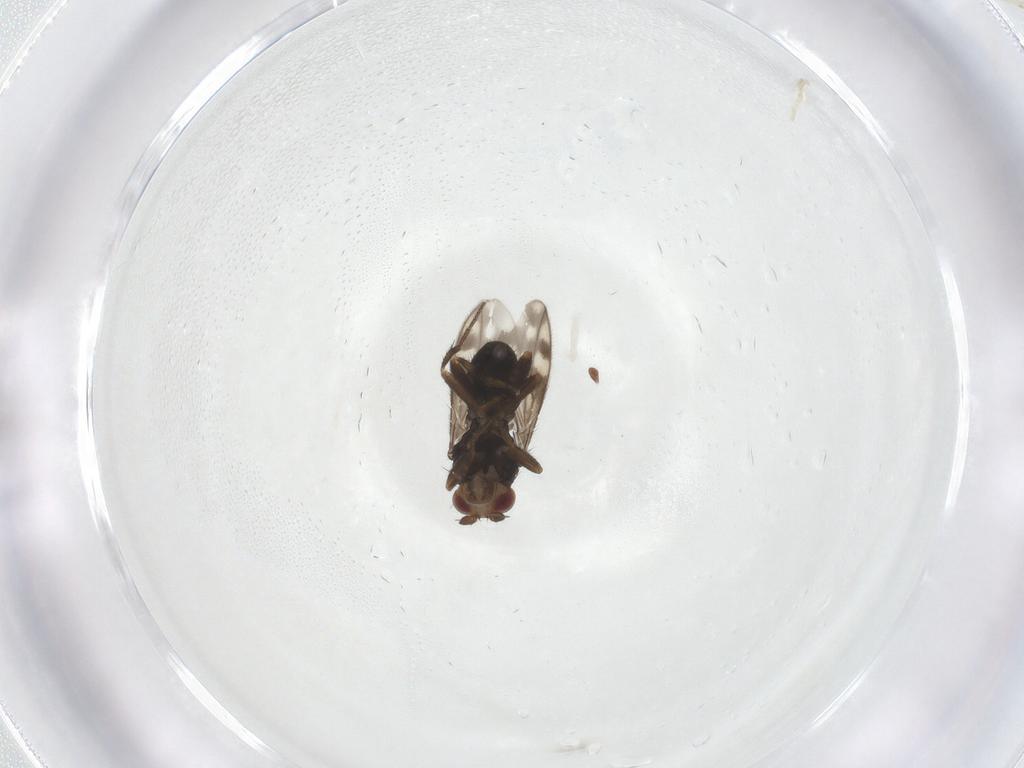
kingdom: Animalia
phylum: Arthropoda
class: Insecta
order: Diptera
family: Sphaeroceridae
